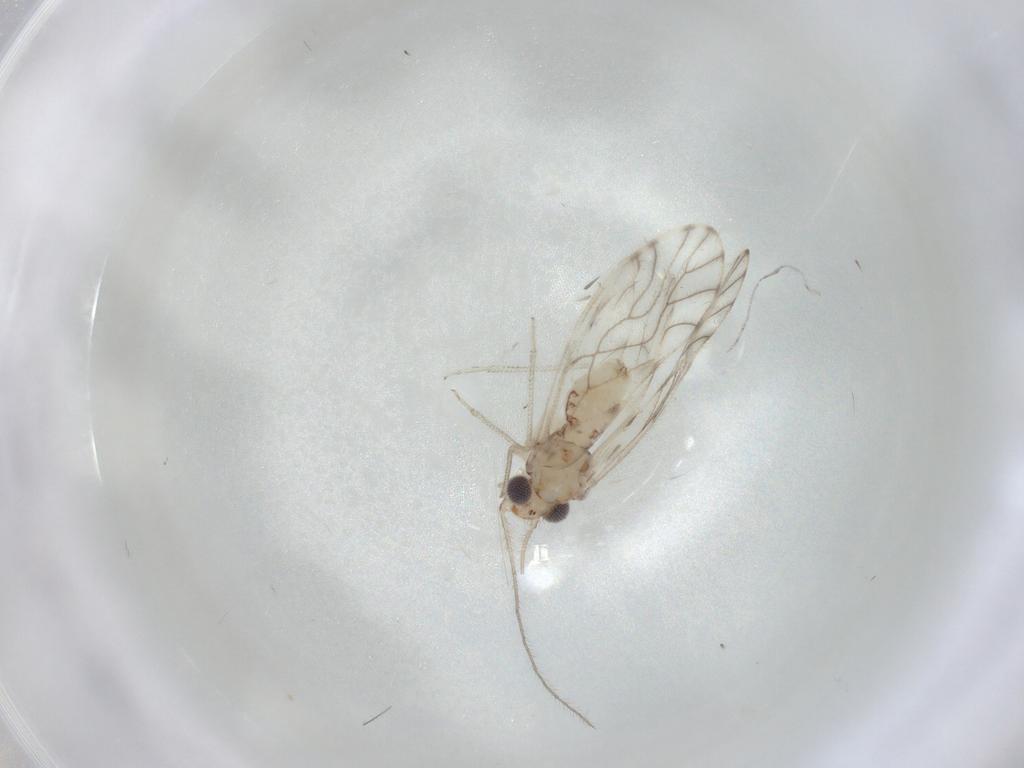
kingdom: Animalia
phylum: Arthropoda
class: Insecta
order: Psocodea
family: Philotarsidae
